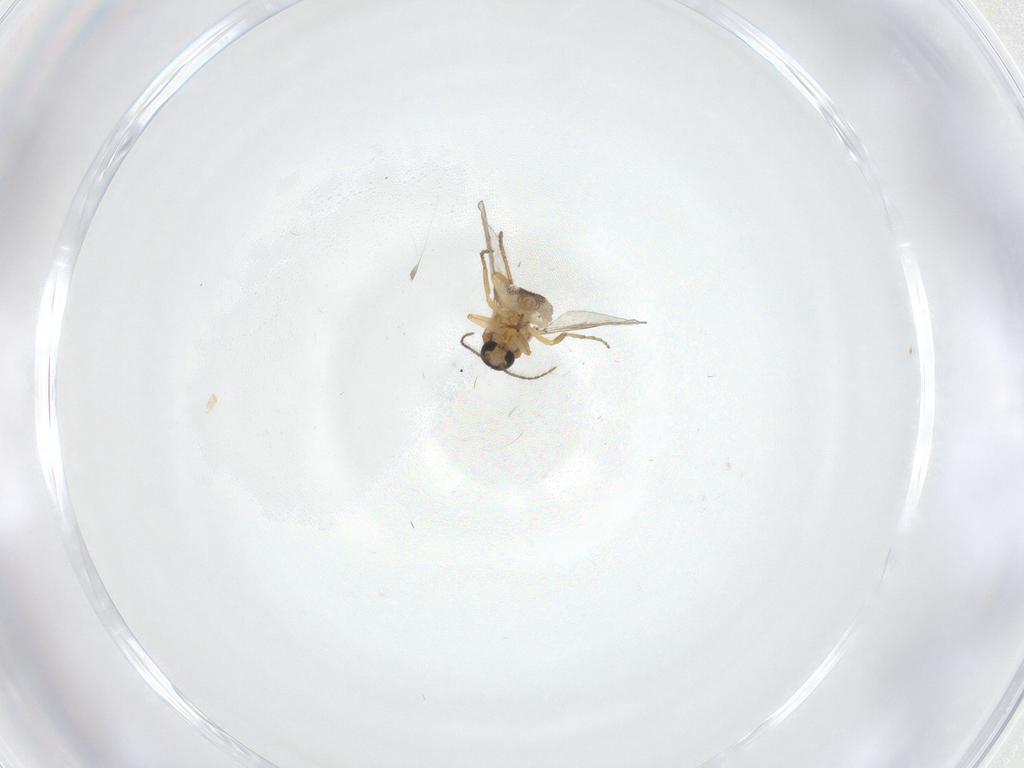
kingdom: Animalia
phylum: Arthropoda
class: Insecta
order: Diptera
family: Ceratopogonidae
